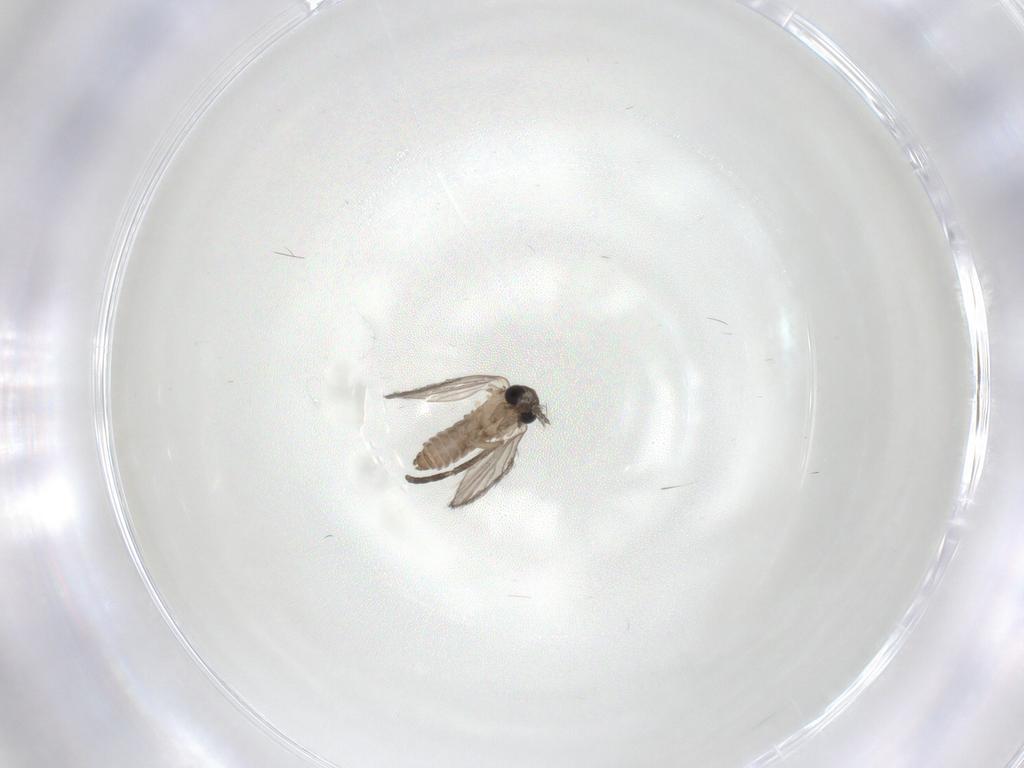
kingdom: Animalia
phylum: Arthropoda
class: Insecta
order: Diptera
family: Psychodidae
